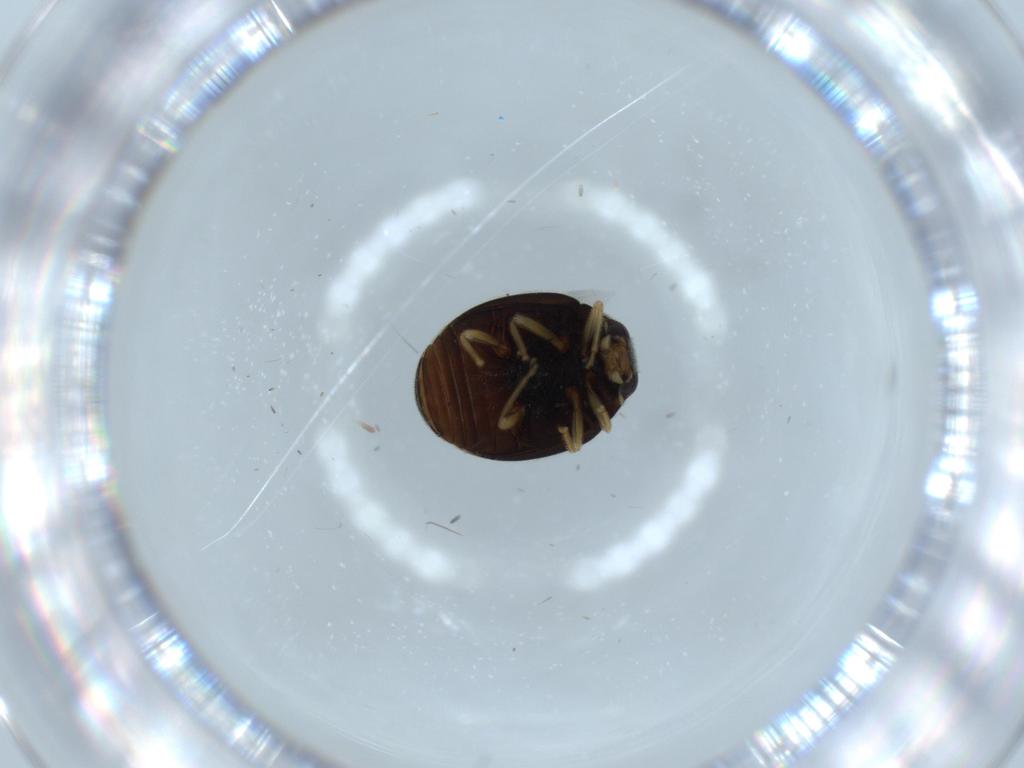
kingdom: Animalia
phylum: Arthropoda
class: Insecta
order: Coleoptera
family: Coccinellidae
